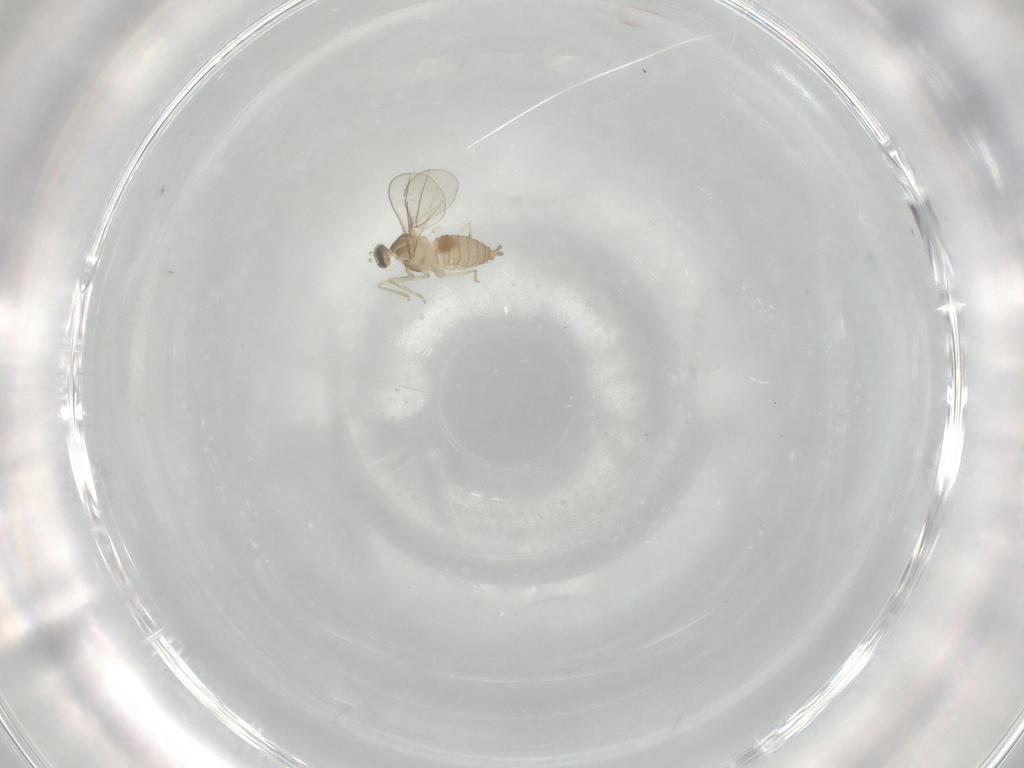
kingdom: Animalia
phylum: Arthropoda
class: Insecta
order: Diptera
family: Cecidomyiidae
